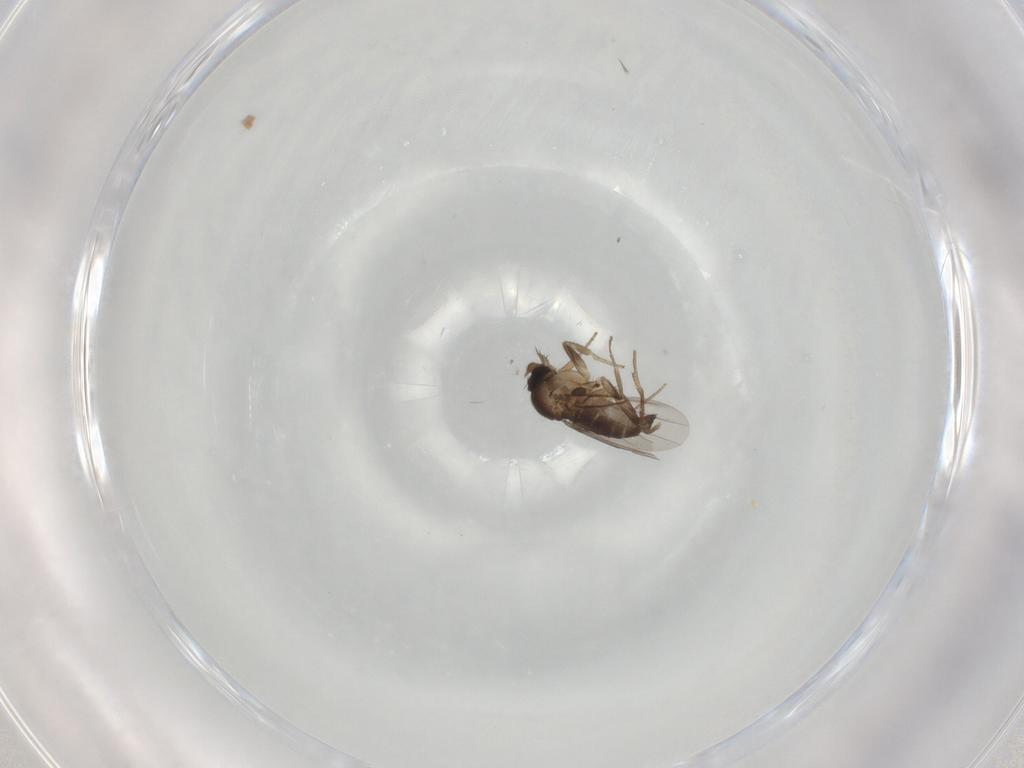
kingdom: Animalia
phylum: Arthropoda
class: Insecta
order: Diptera
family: Phoridae
